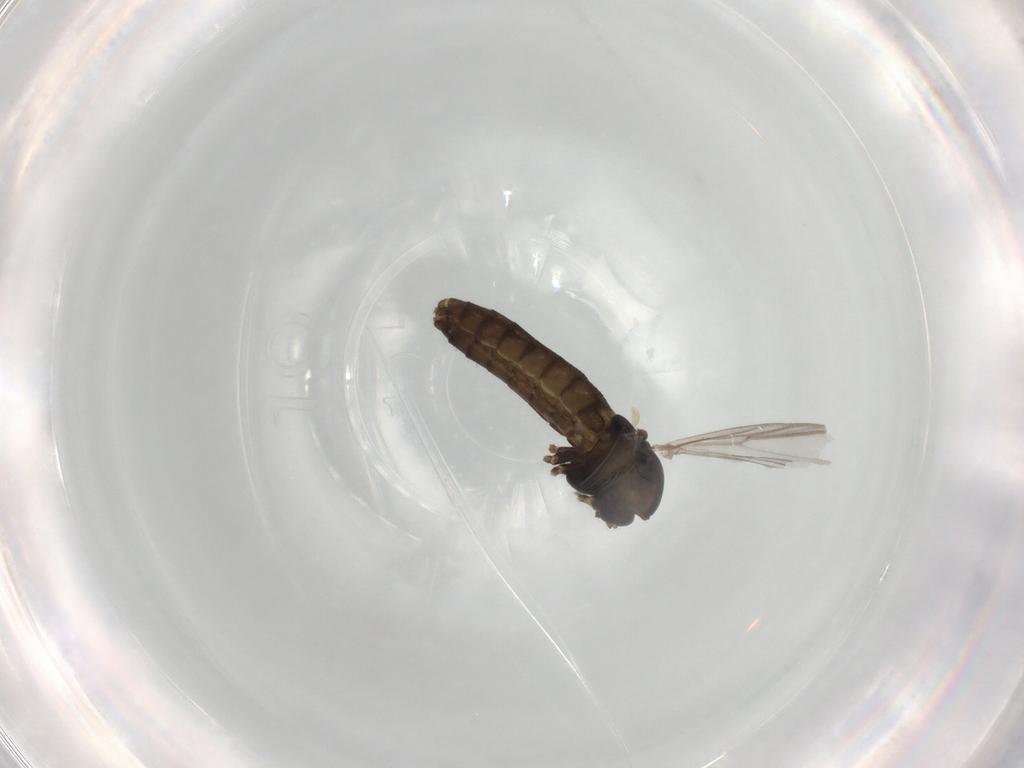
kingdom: Animalia
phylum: Arthropoda
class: Insecta
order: Diptera
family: Chironomidae
